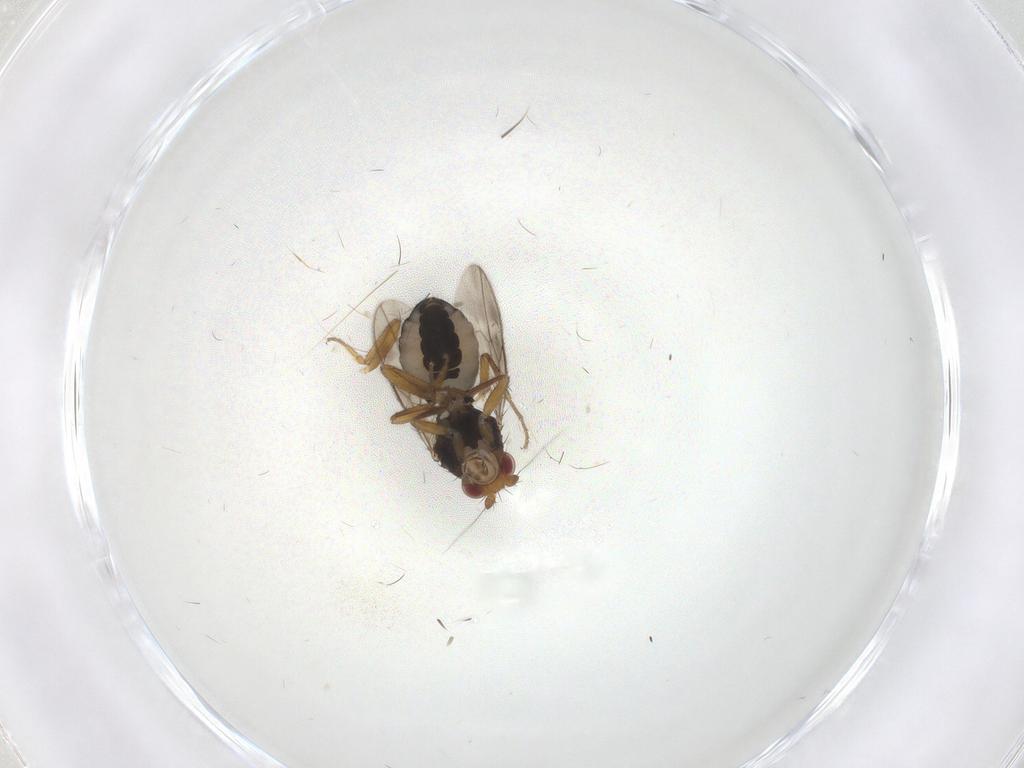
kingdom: Animalia
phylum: Arthropoda
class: Insecta
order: Diptera
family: Sphaeroceridae
